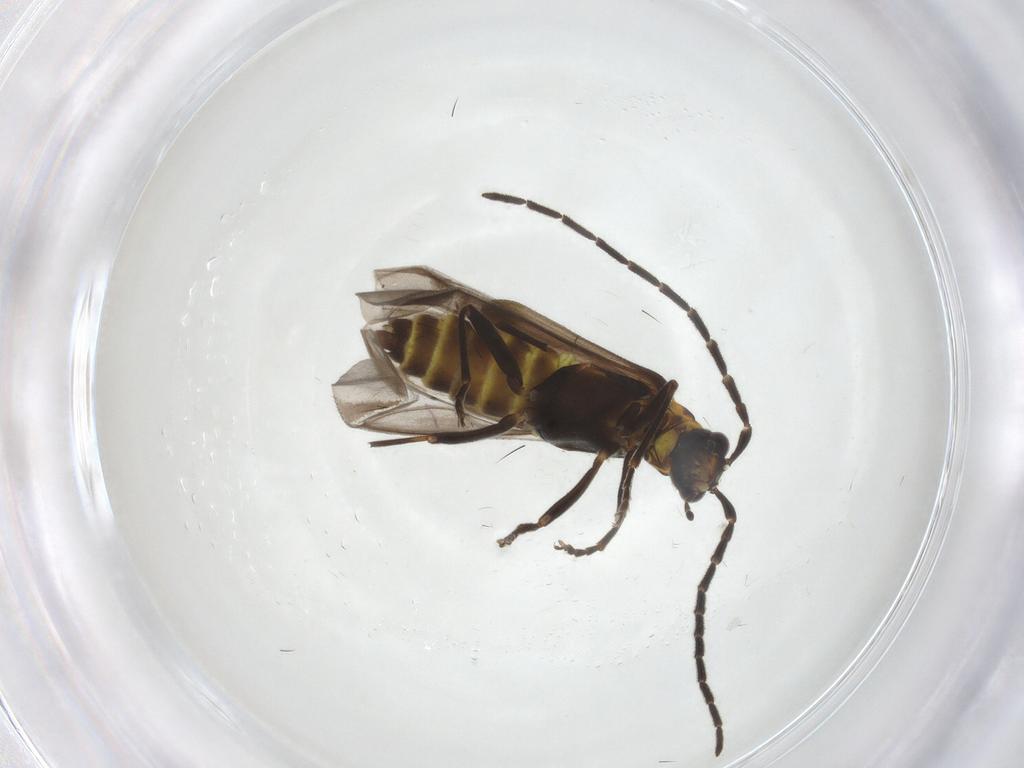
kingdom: Animalia
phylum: Arthropoda
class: Insecta
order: Coleoptera
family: Cantharidae
